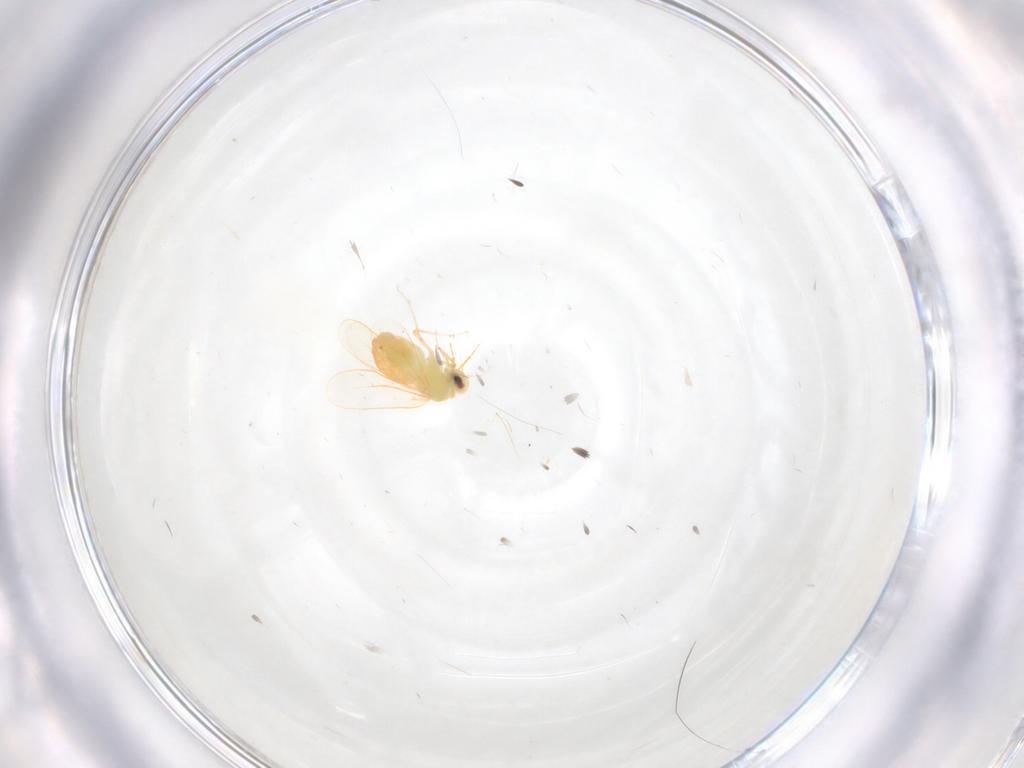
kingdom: Animalia
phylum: Arthropoda
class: Insecta
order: Hemiptera
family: Aleyrodidae
